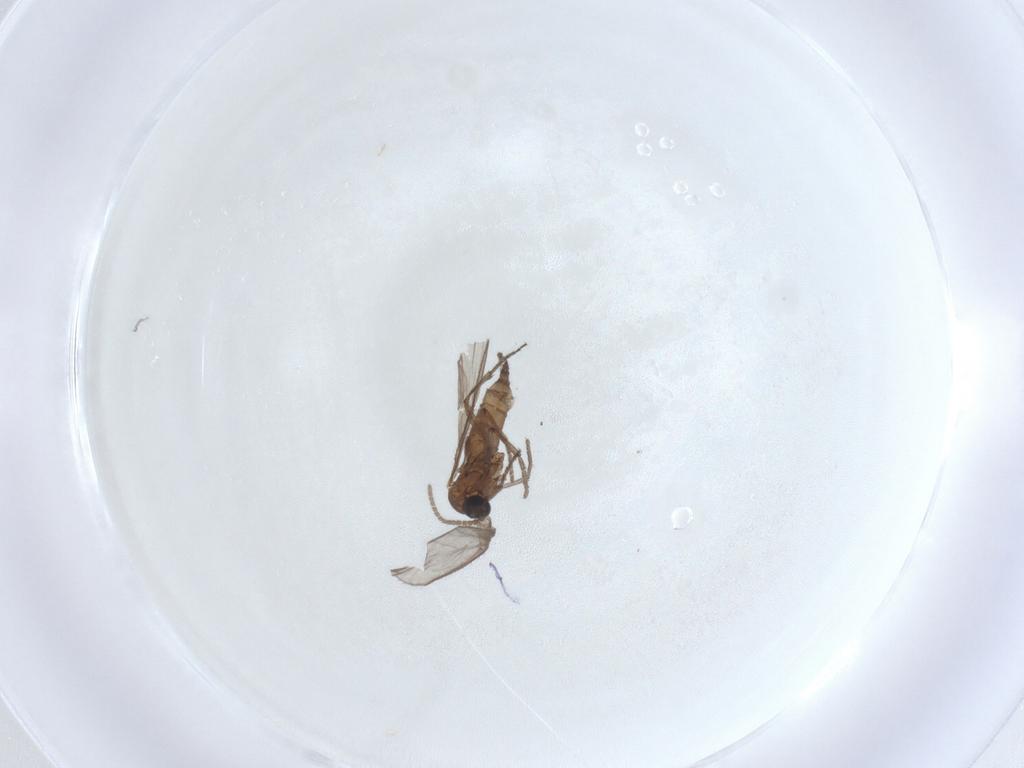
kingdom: Animalia
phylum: Arthropoda
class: Insecta
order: Diptera
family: Sciaridae
